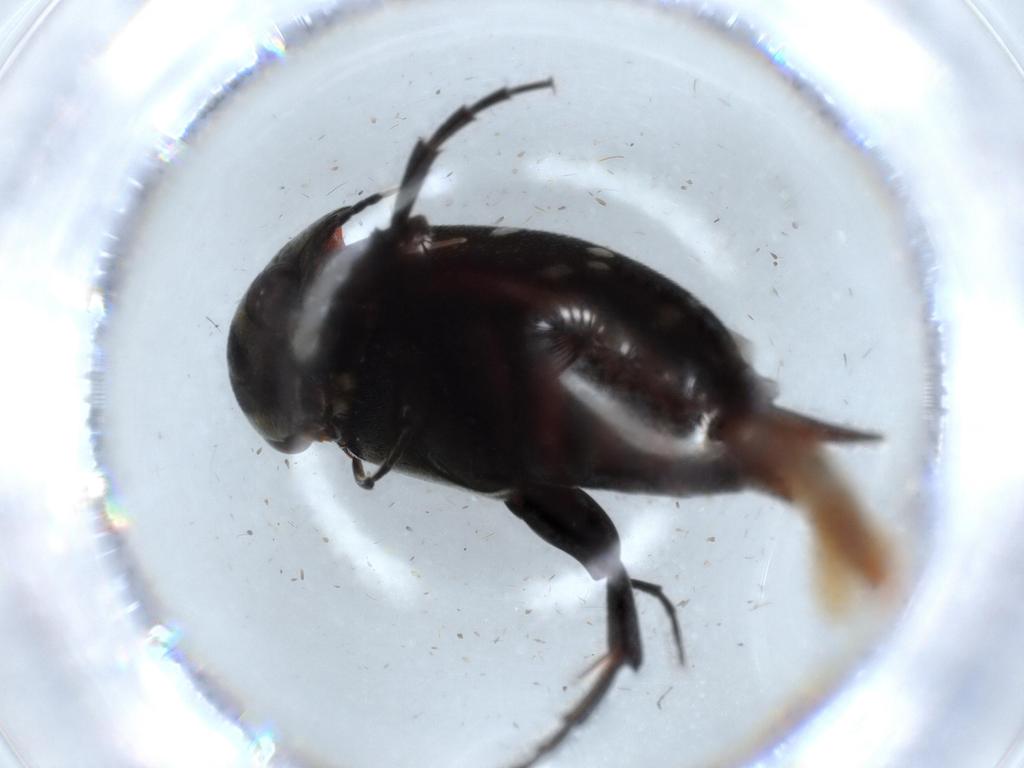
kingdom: Animalia
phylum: Arthropoda
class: Insecta
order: Coleoptera
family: Mordellidae
